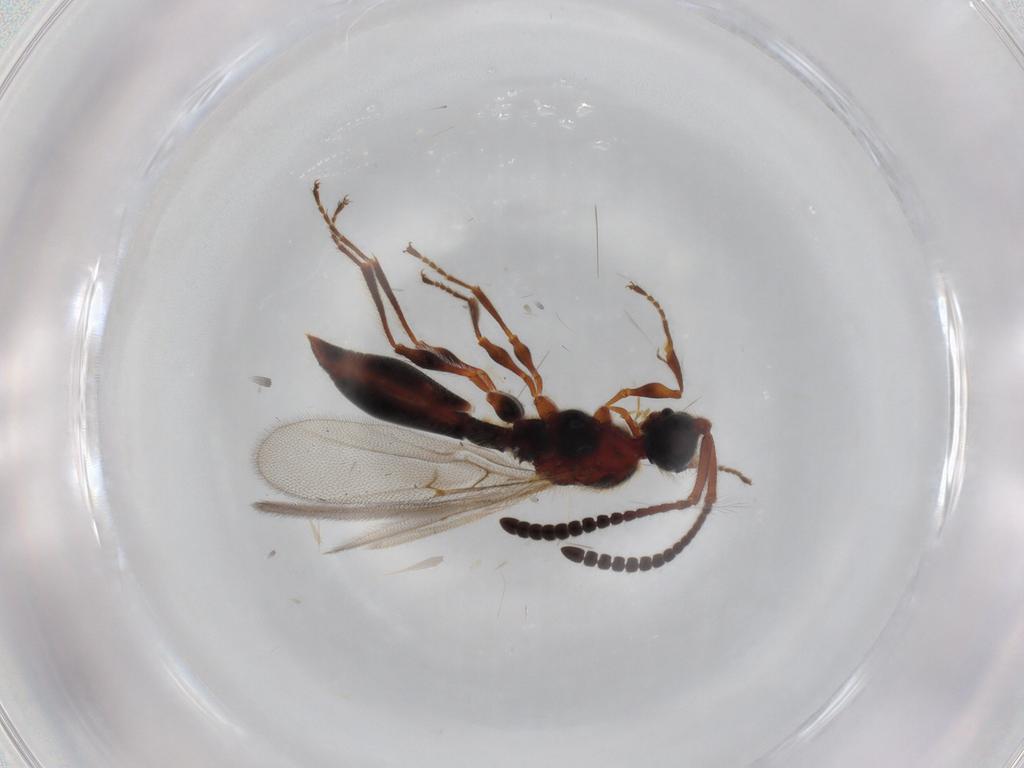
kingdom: Animalia
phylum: Arthropoda
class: Insecta
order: Hymenoptera
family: Diapriidae
